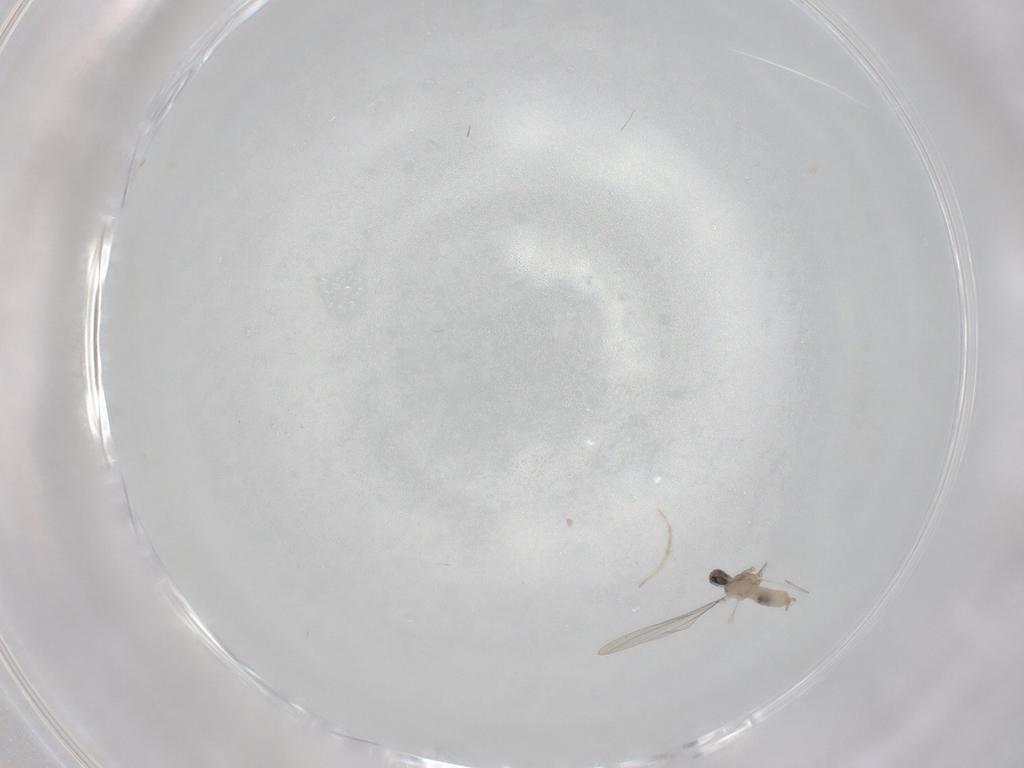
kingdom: Animalia
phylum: Arthropoda
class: Insecta
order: Diptera
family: Sciaridae
